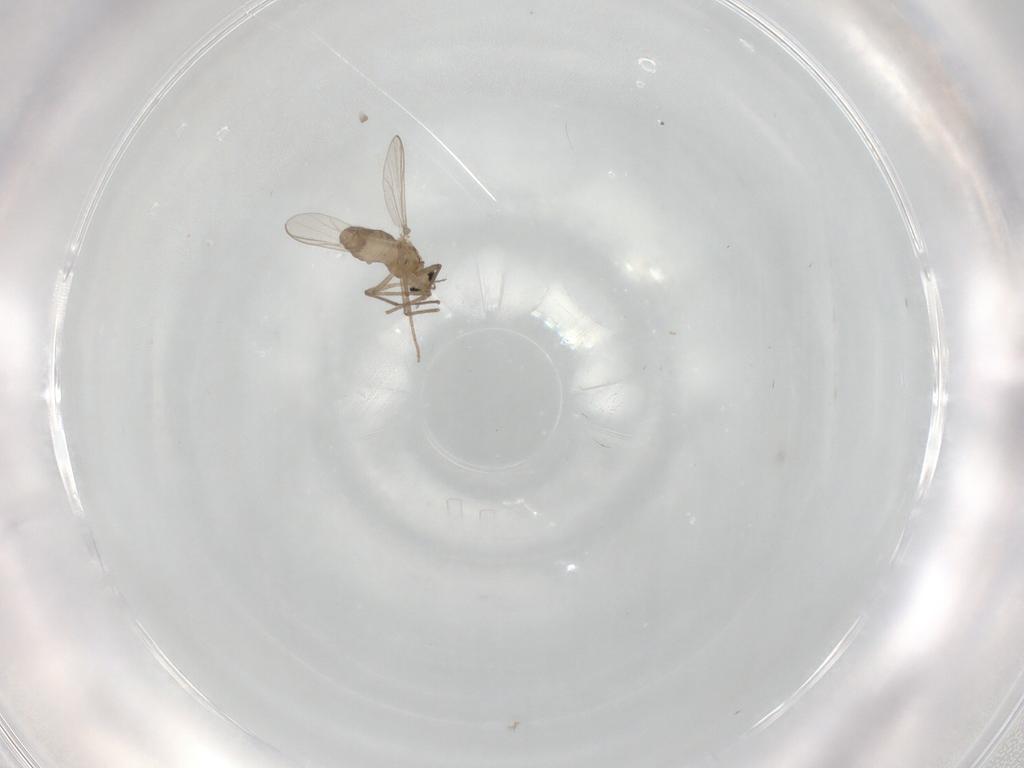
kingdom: Animalia
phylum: Arthropoda
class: Insecta
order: Diptera
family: Chironomidae
